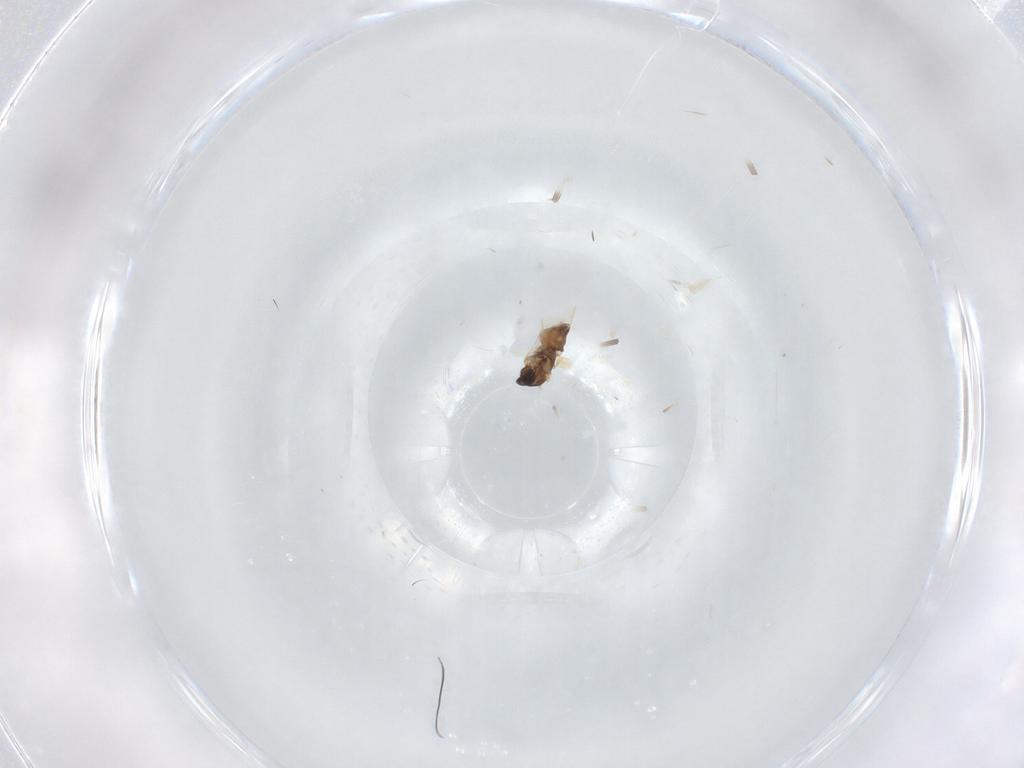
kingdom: Animalia
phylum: Arthropoda
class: Insecta
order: Diptera
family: Cecidomyiidae
